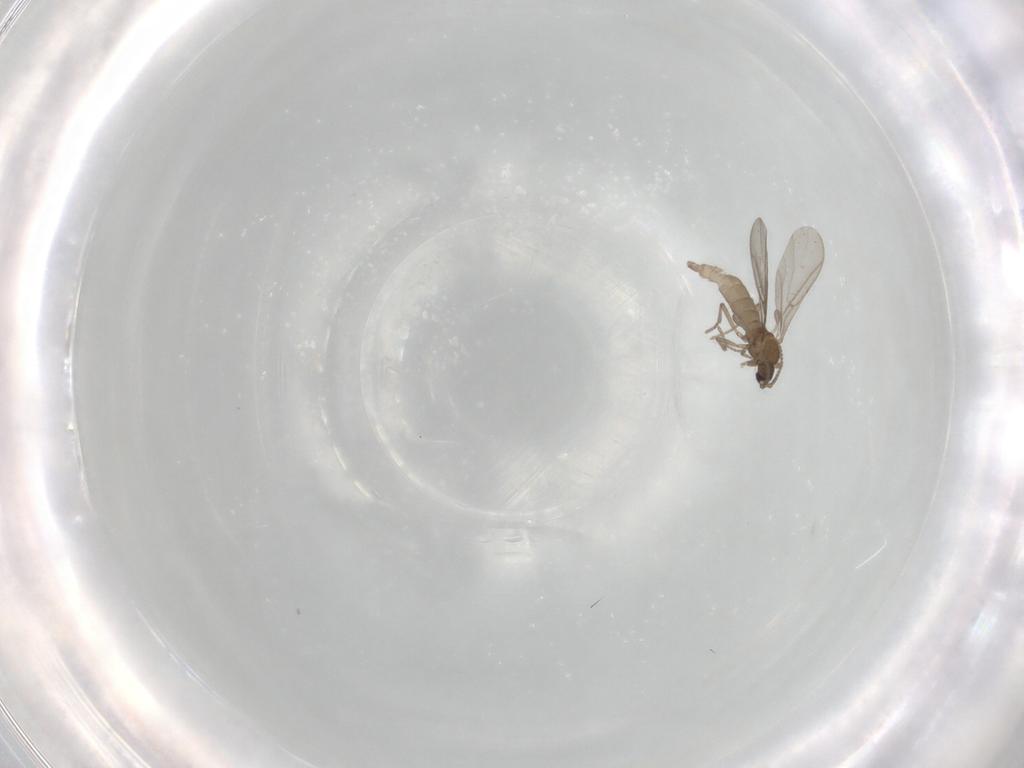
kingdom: Animalia
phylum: Arthropoda
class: Insecta
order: Diptera
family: Sciaridae
